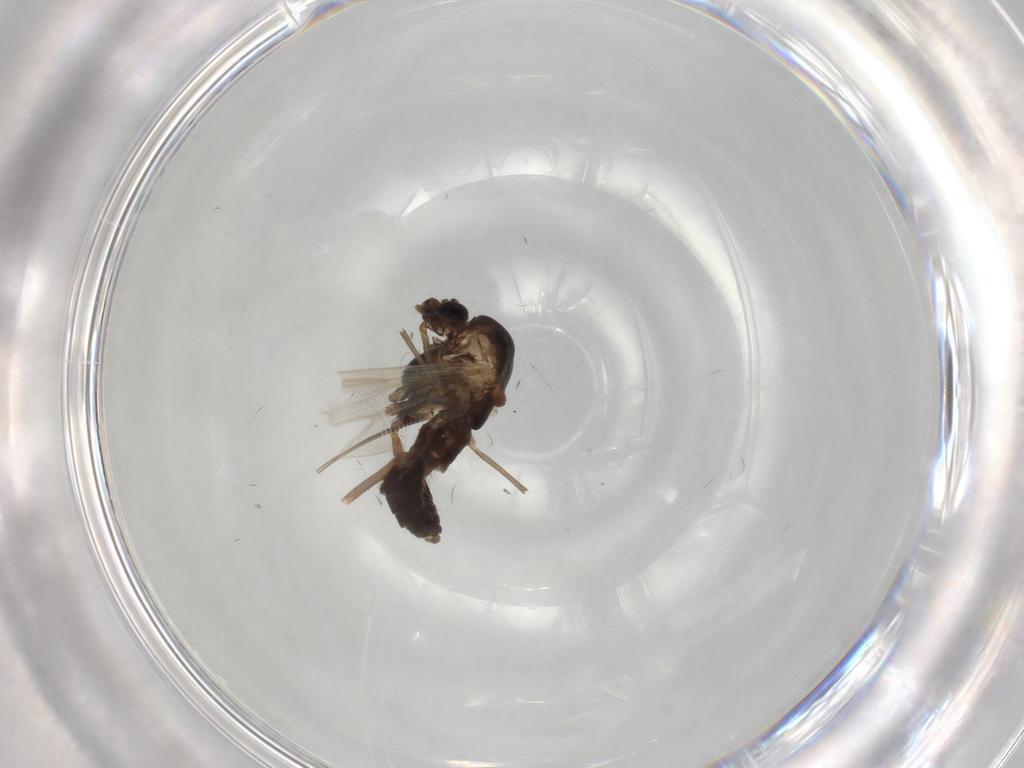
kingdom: Animalia
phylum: Arthropoda
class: Insecta
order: Diptera
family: Chironomidae
